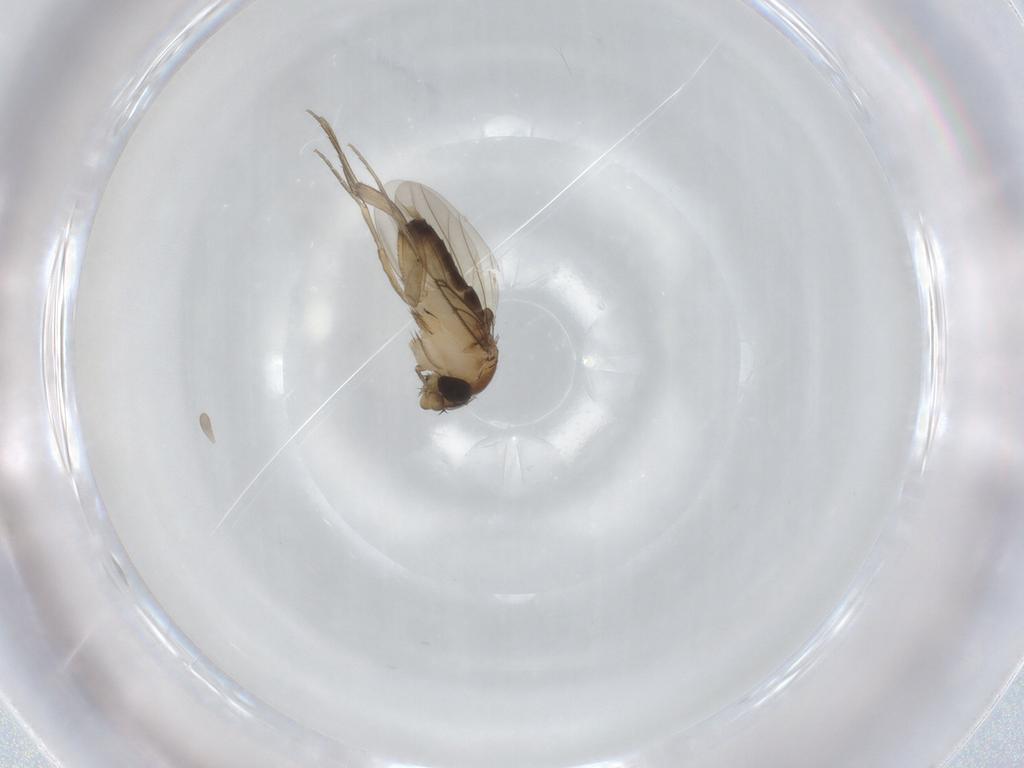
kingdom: Animalia
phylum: Arthropoda
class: Insecta
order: Diptera
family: Phoridae
